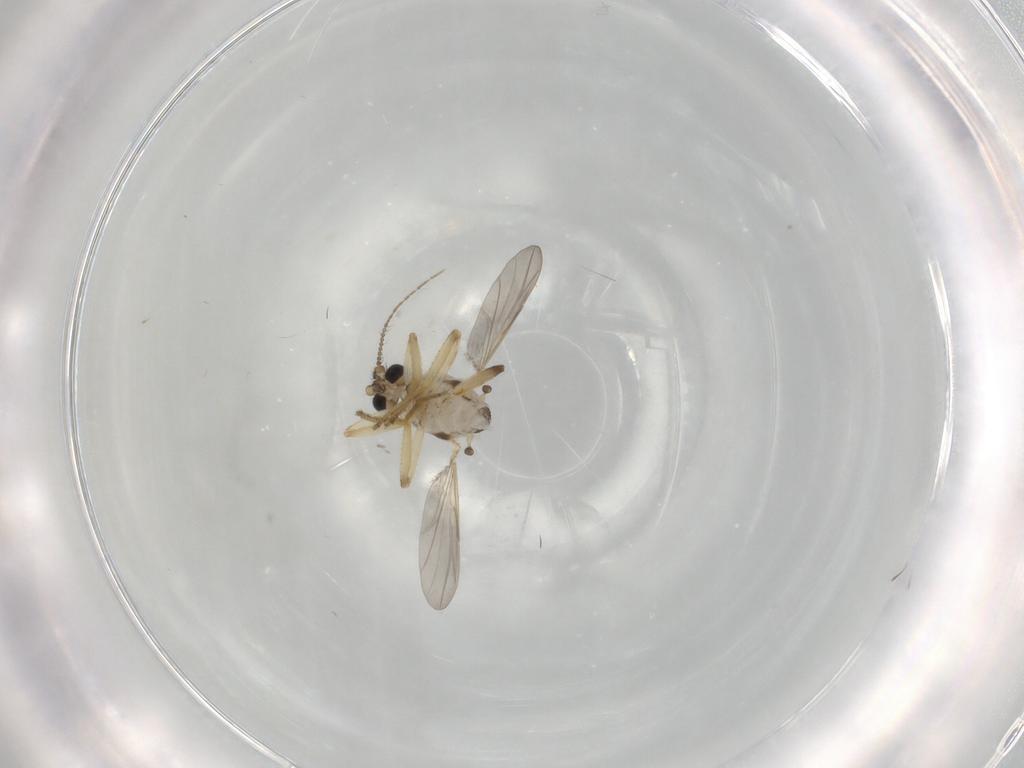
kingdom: Animalia
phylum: Arthropoda
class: Insecta
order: Diptera
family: Ceratopogonidae
